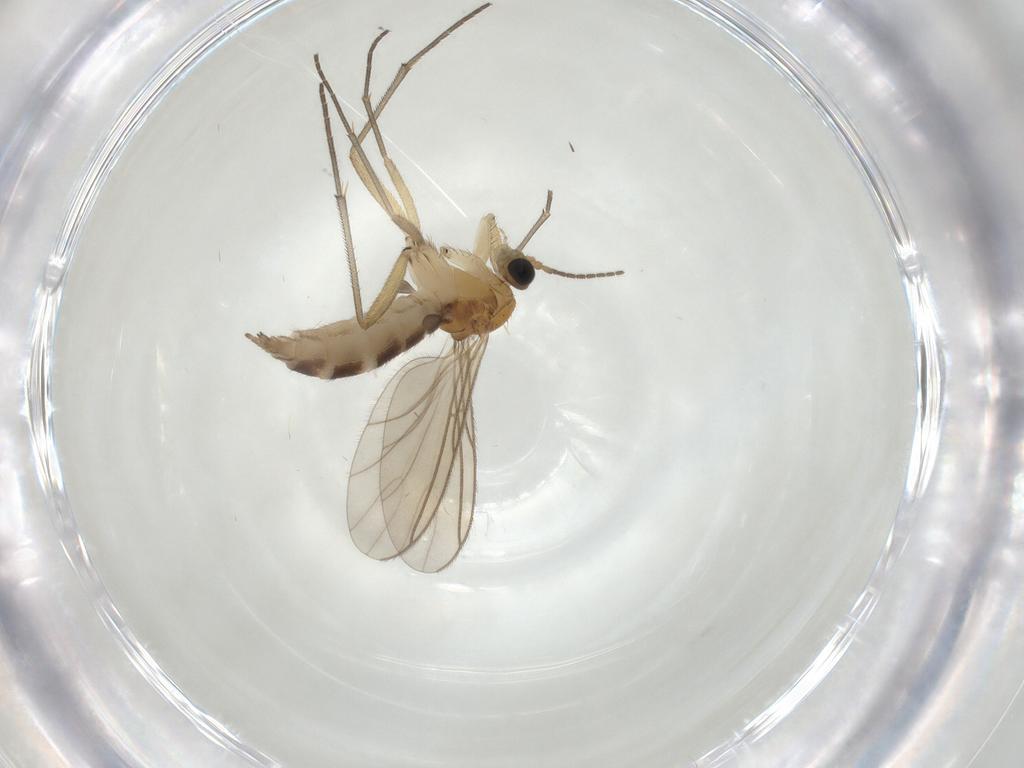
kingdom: Animalia
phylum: Arthropoda
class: Insecta
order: Diptera
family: Sciaridae
